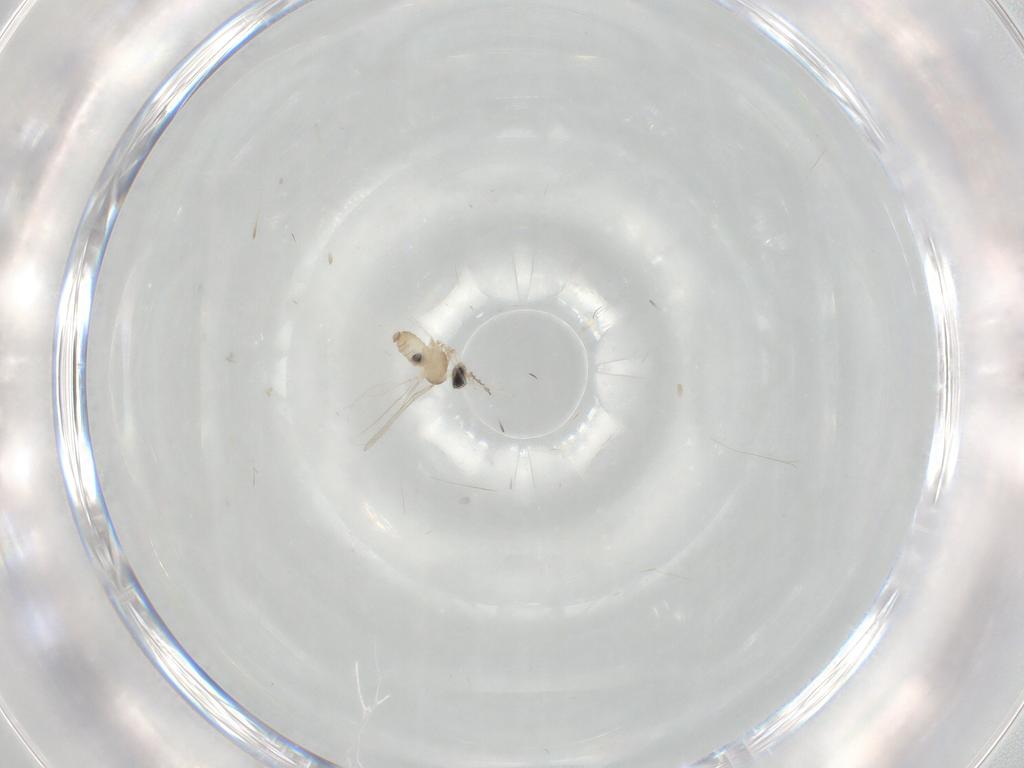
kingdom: Animalia
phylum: Arthropoda
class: Insecta
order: Diptera
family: Cecidomyiidae
